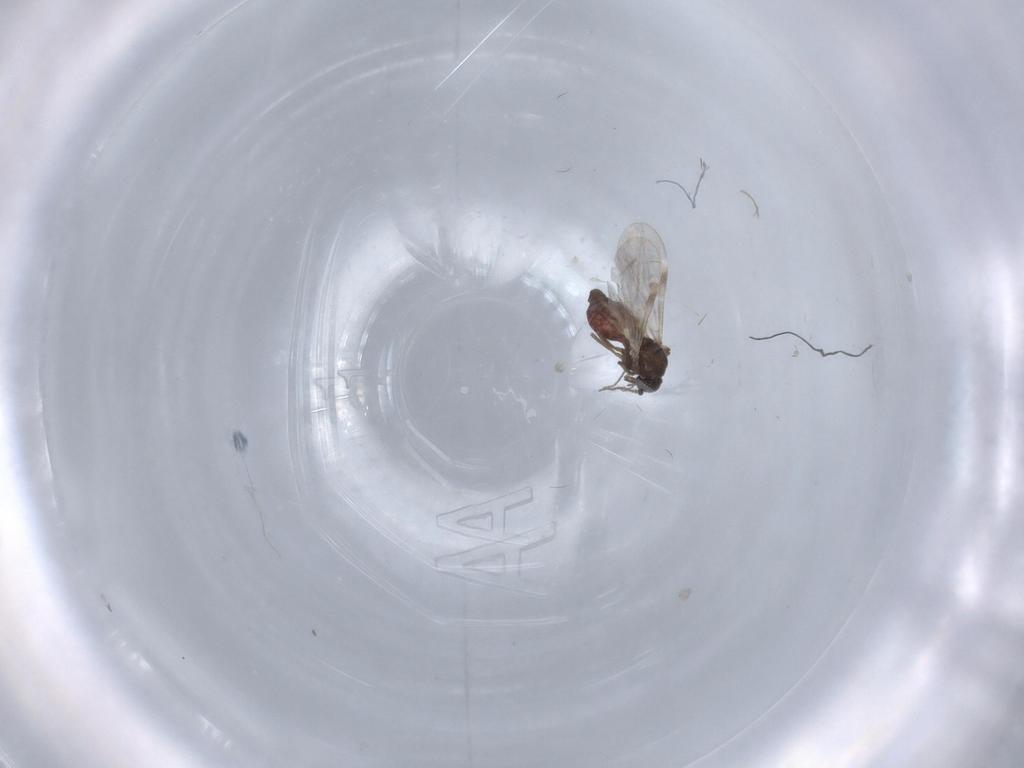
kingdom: Animalia
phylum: Arthropoda
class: Insecta
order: Diptera
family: Ceratopogonidae
